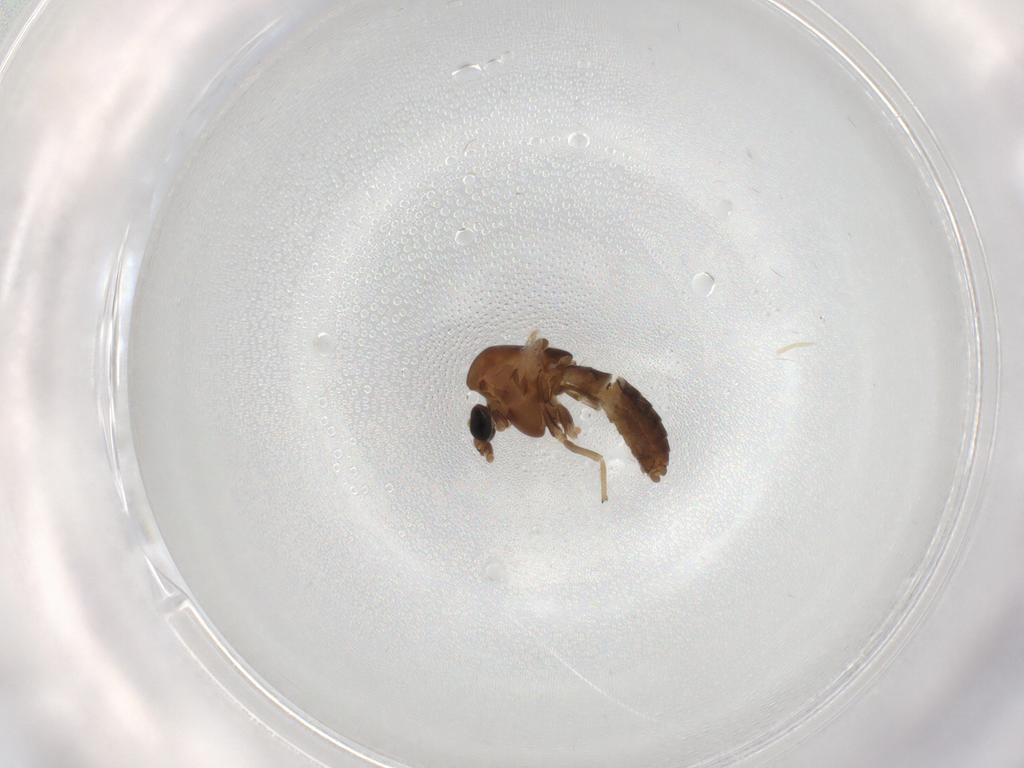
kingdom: Animalia
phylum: Arthropoda
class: Insecta
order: Diptera
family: Chironomidae
